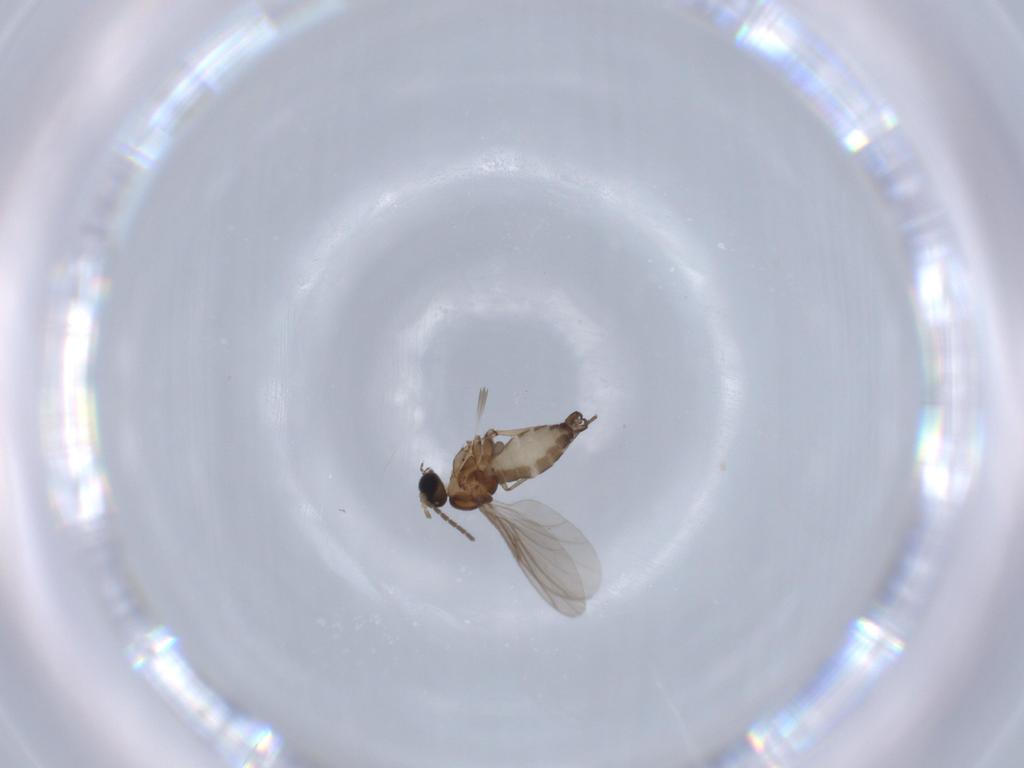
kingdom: Animalia
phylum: Arthropoda
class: Insecta
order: Diptera
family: Sciaridae
